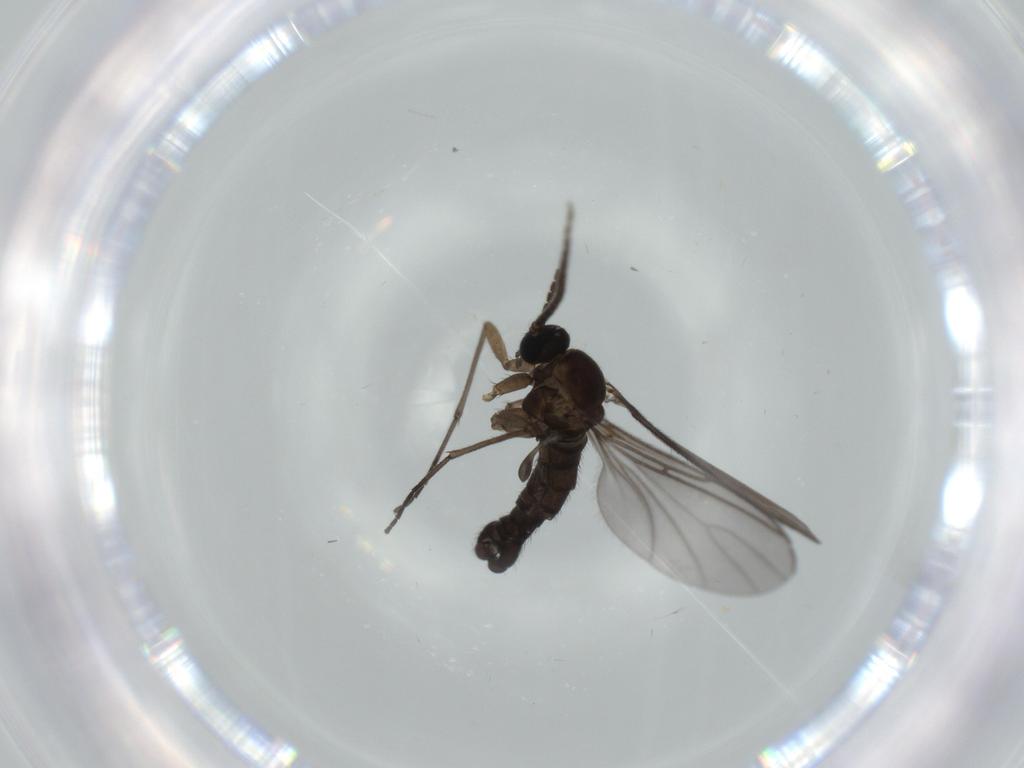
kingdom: Animalia
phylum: Arthropoda
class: Insecta
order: Diptera
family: Sciaridae
